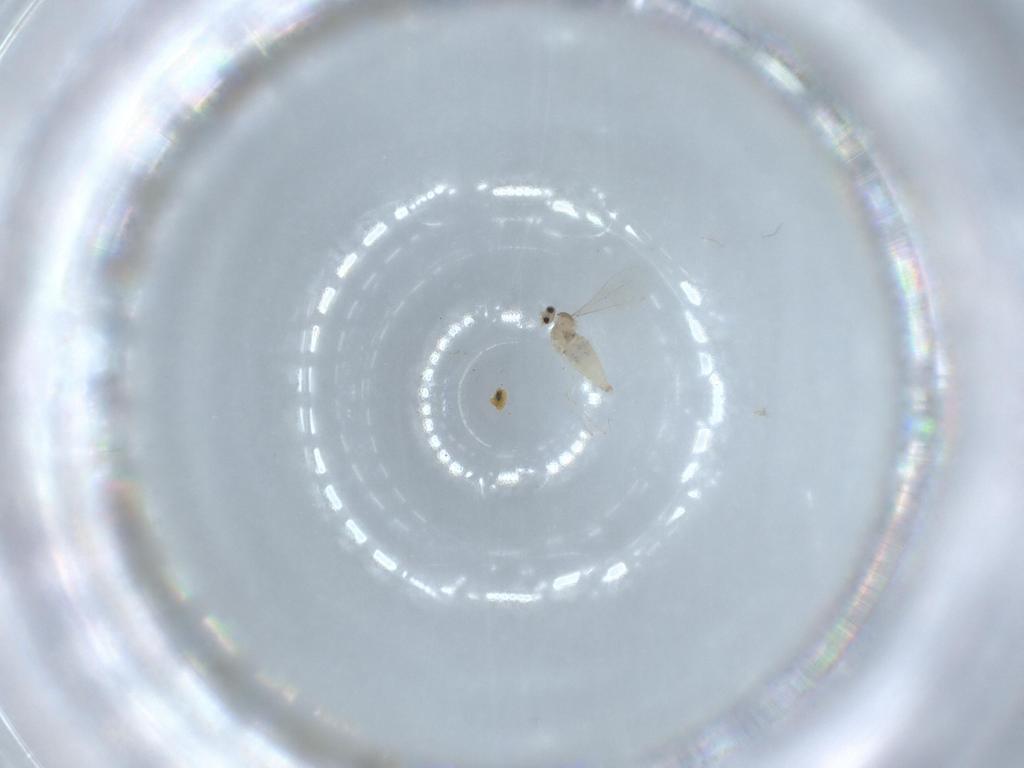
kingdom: Animalia
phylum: Arthropoda
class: Insecta
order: Diptera
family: Cecidomyiidae
